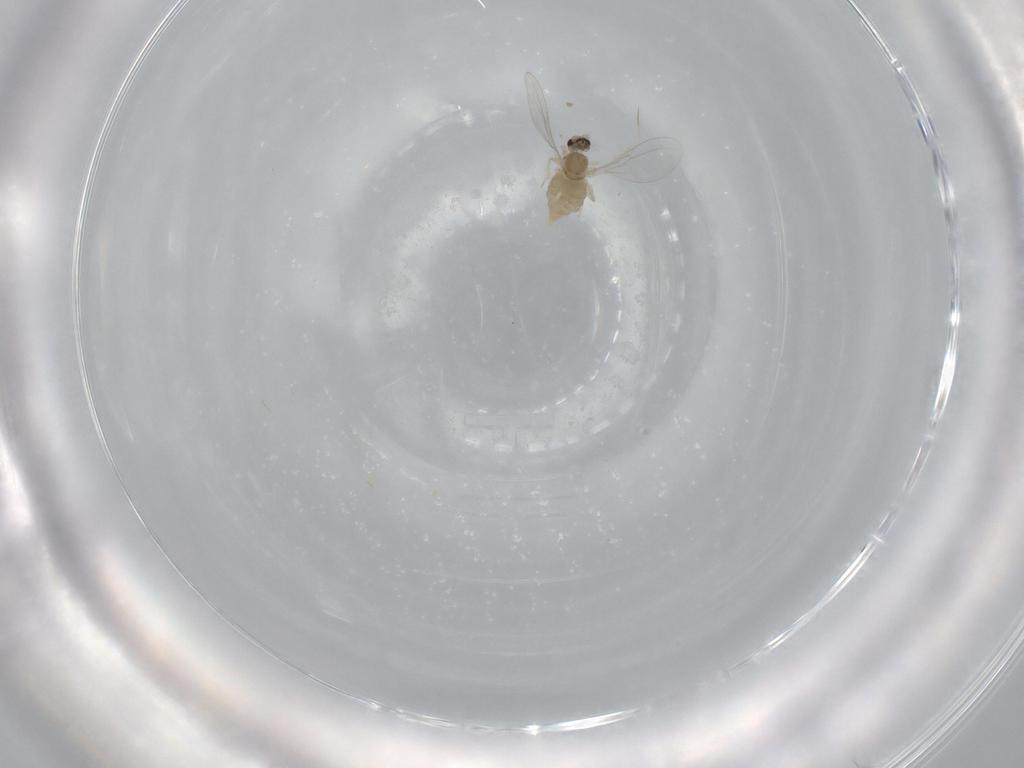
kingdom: Animalia
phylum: Arthropoda
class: Insecta
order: Diptera
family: Cecidomyiidae
